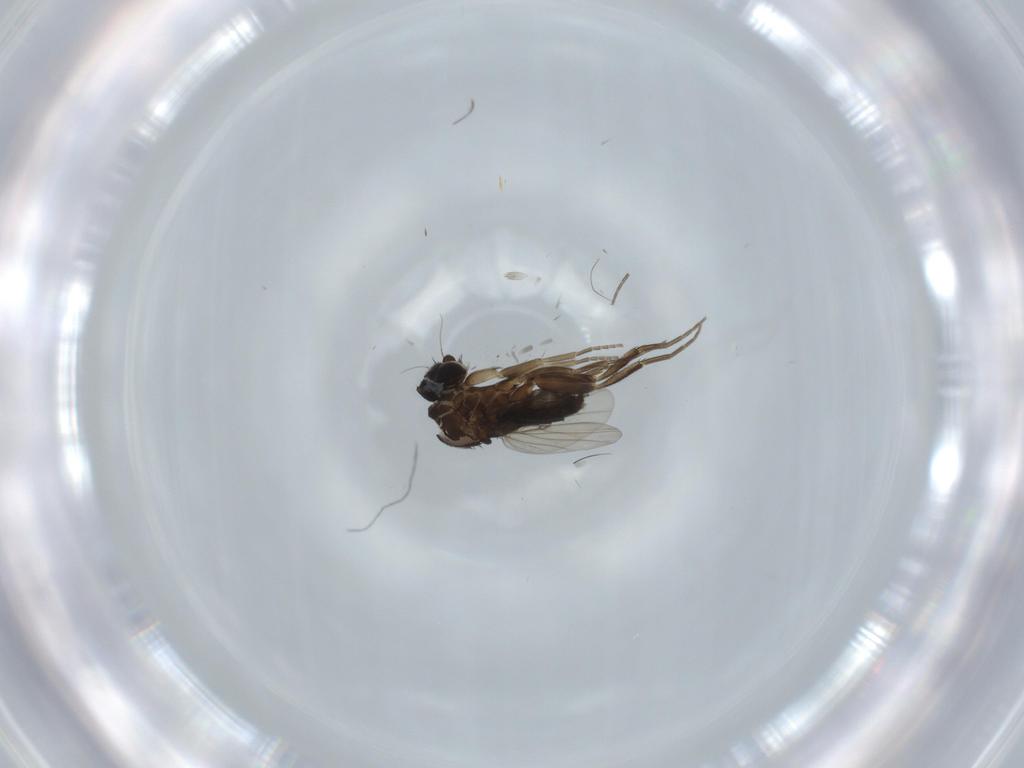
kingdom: Animalia
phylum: Arthropoda
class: Insecta
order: Diptera
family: Phoridae
